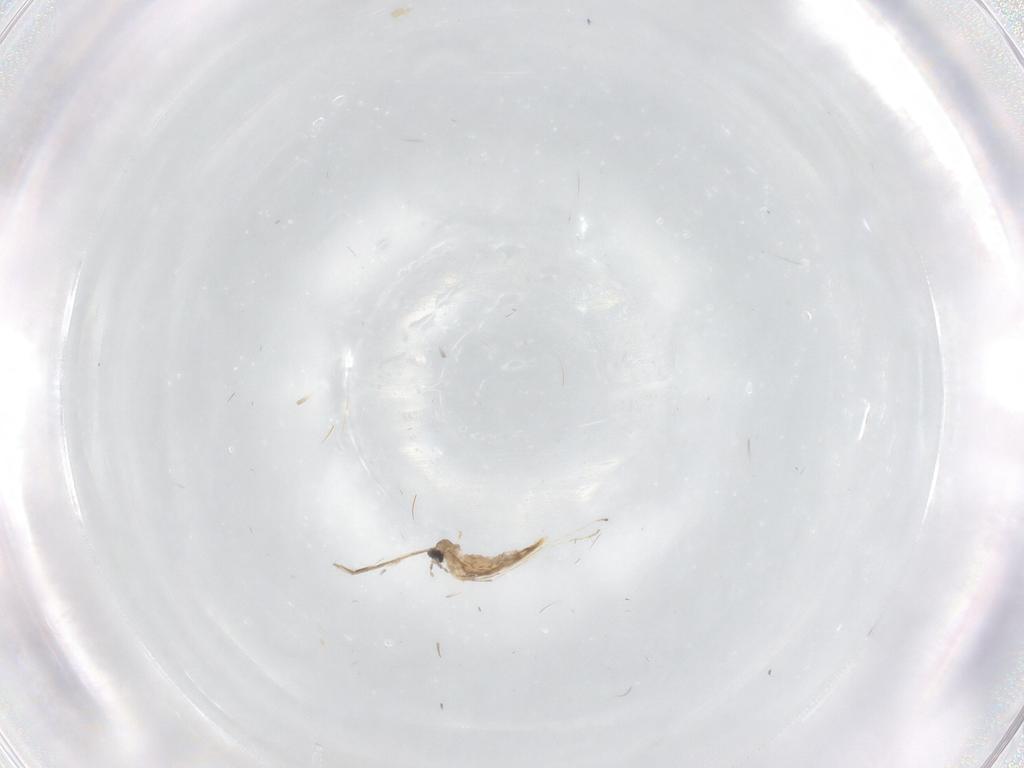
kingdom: Animalia
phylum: Arthropoda
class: Insecta
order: Diptera
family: Cecidomyiidae
